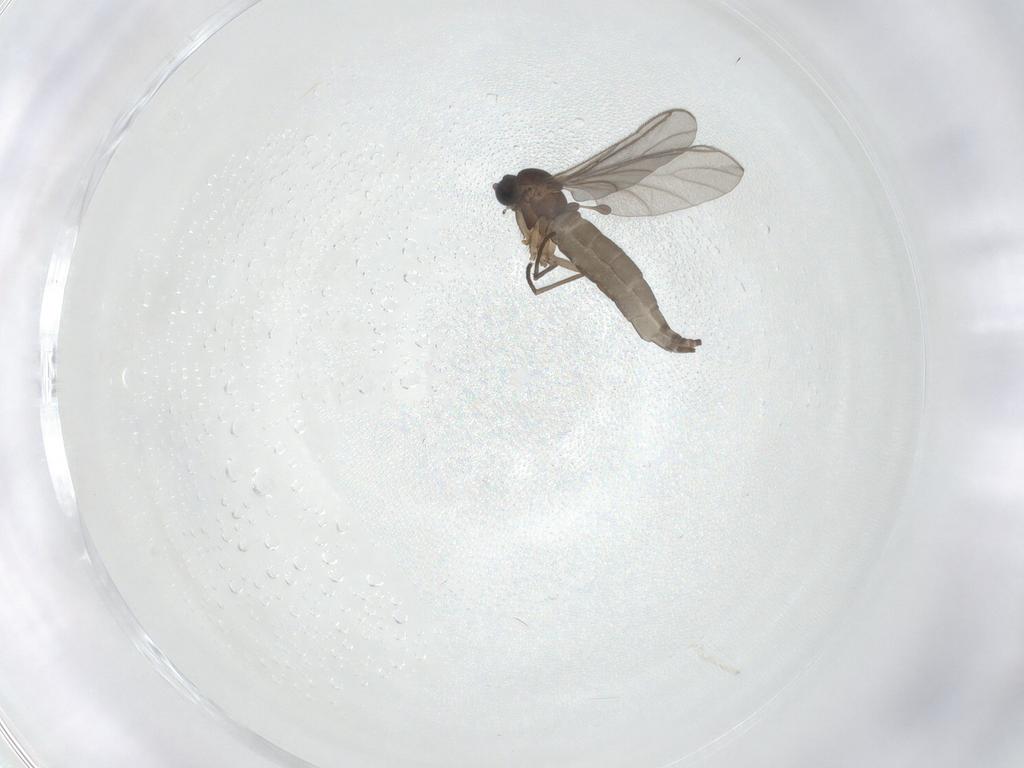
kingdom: Animalia
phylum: Arthropoda
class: Insecta
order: Diptera
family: Sciaridae
